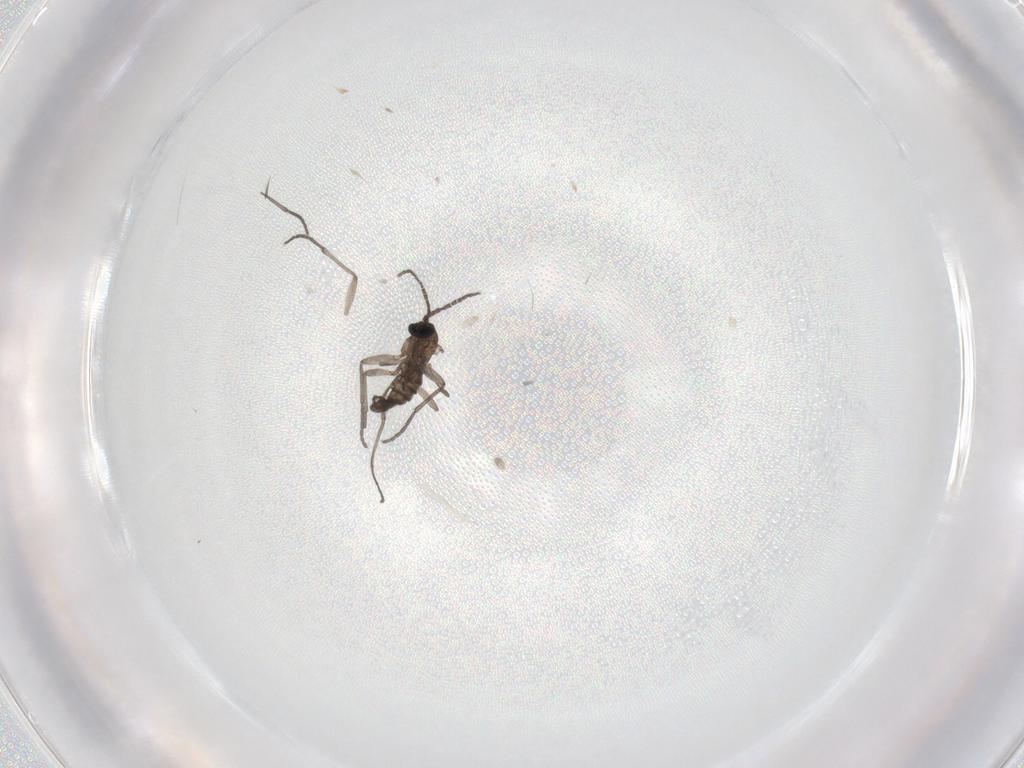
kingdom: Animalia
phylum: Arthropoda
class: Insecta
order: Diptera
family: Sciaridae
